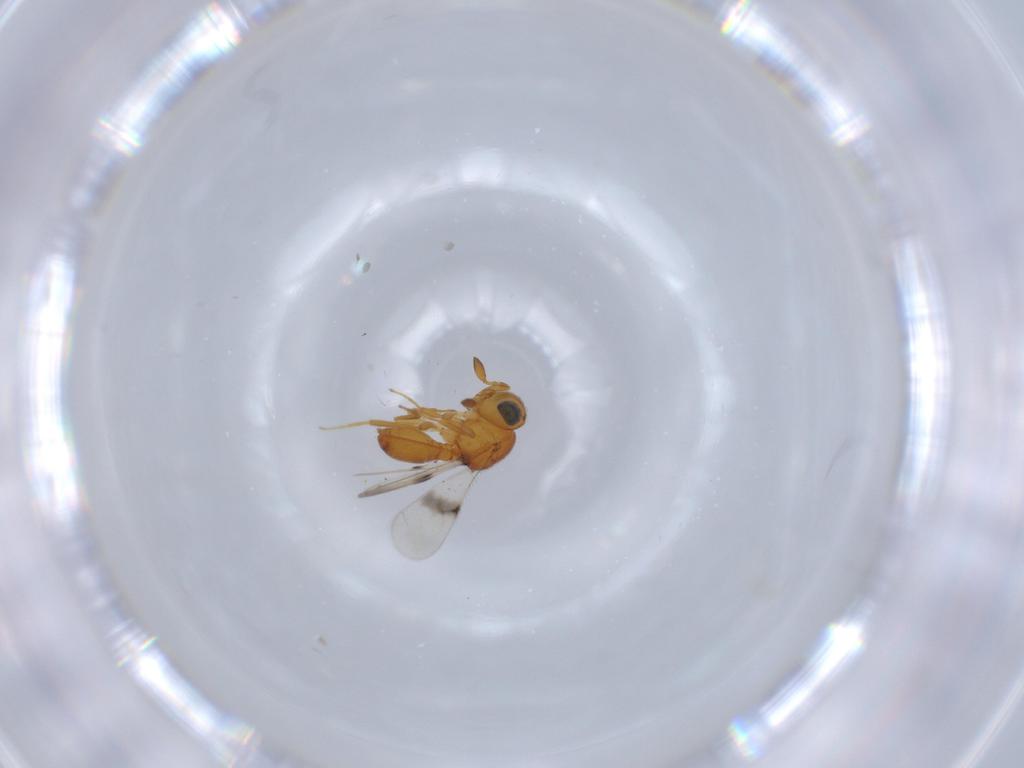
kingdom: Animalia
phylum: Arthropoda
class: Insecta
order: Hymenoptera
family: Scelionidae
